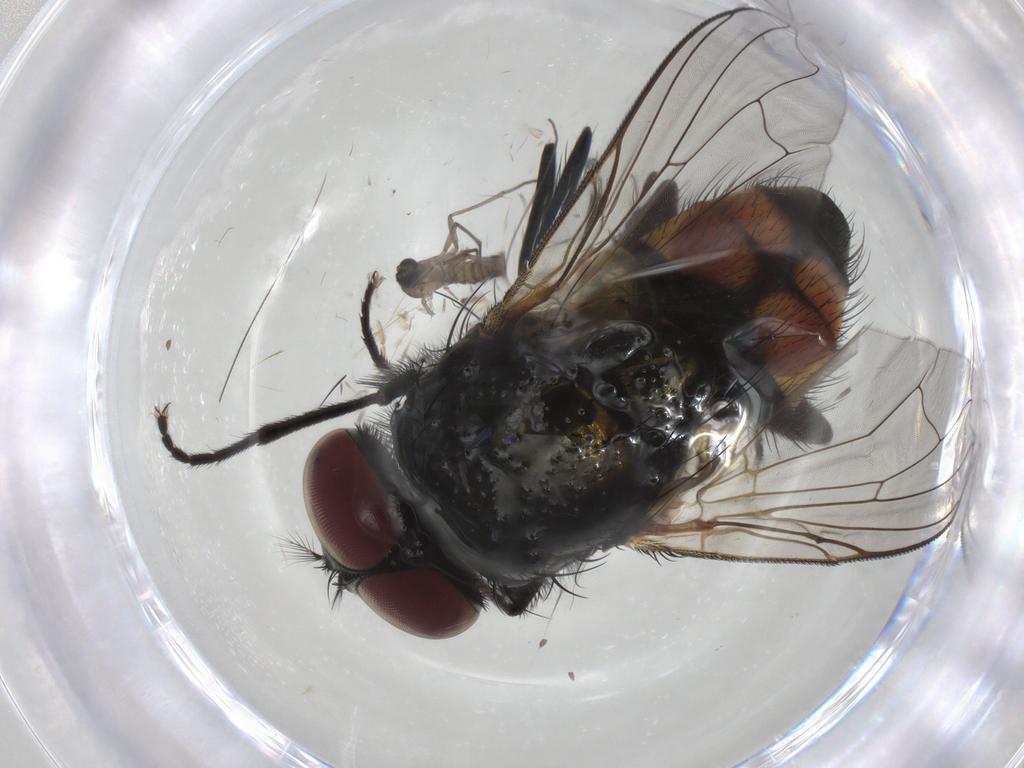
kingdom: Animalia
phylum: Arthropoda
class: Insecta
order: Diptera
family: Muscidae
